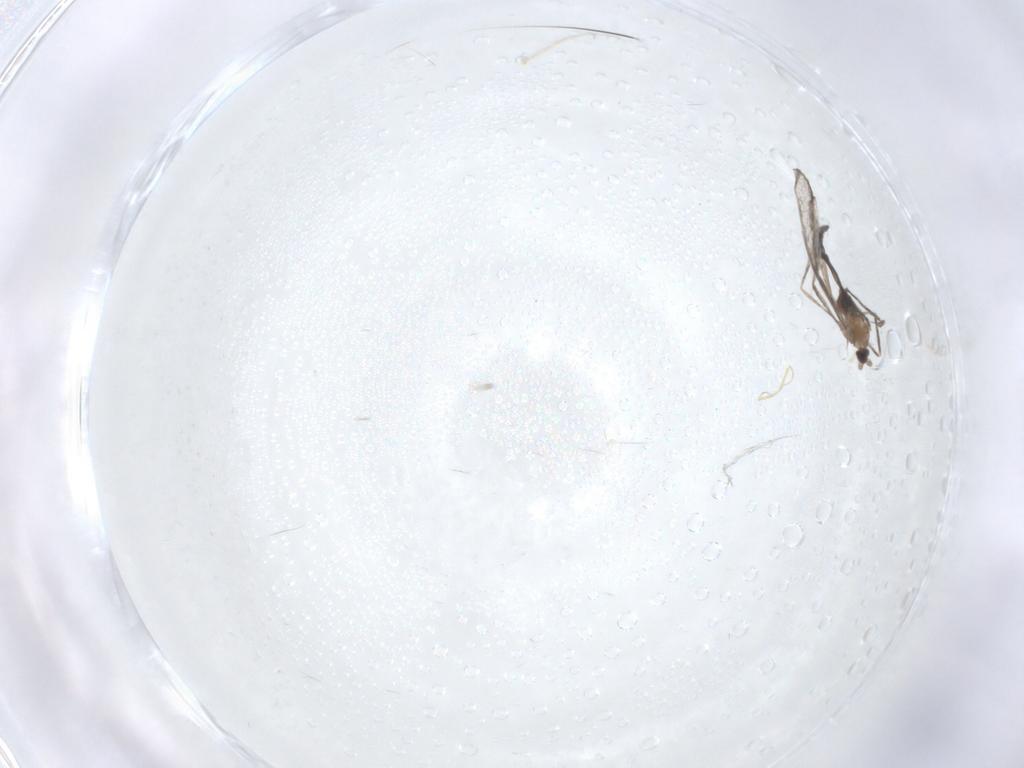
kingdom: Animalia
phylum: Arthropoda
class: Insecta
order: Diptera
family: Cecidomyiidae
